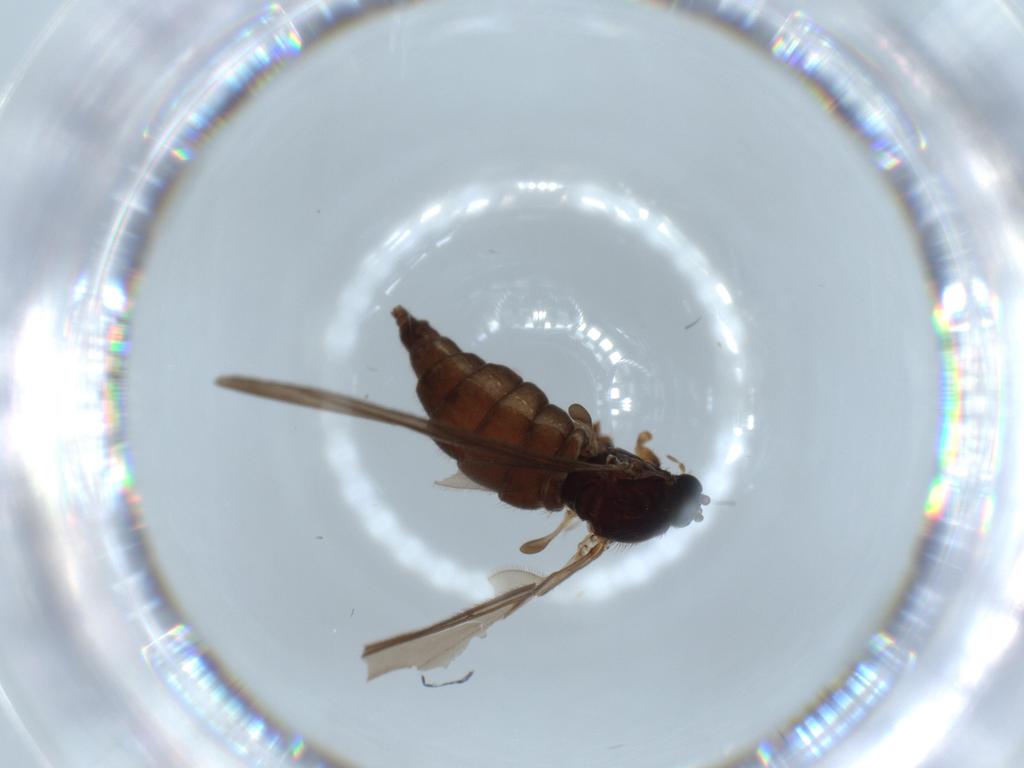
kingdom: Animalia
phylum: Arthropoda
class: Insecta
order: Diptera
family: Sciaridae
